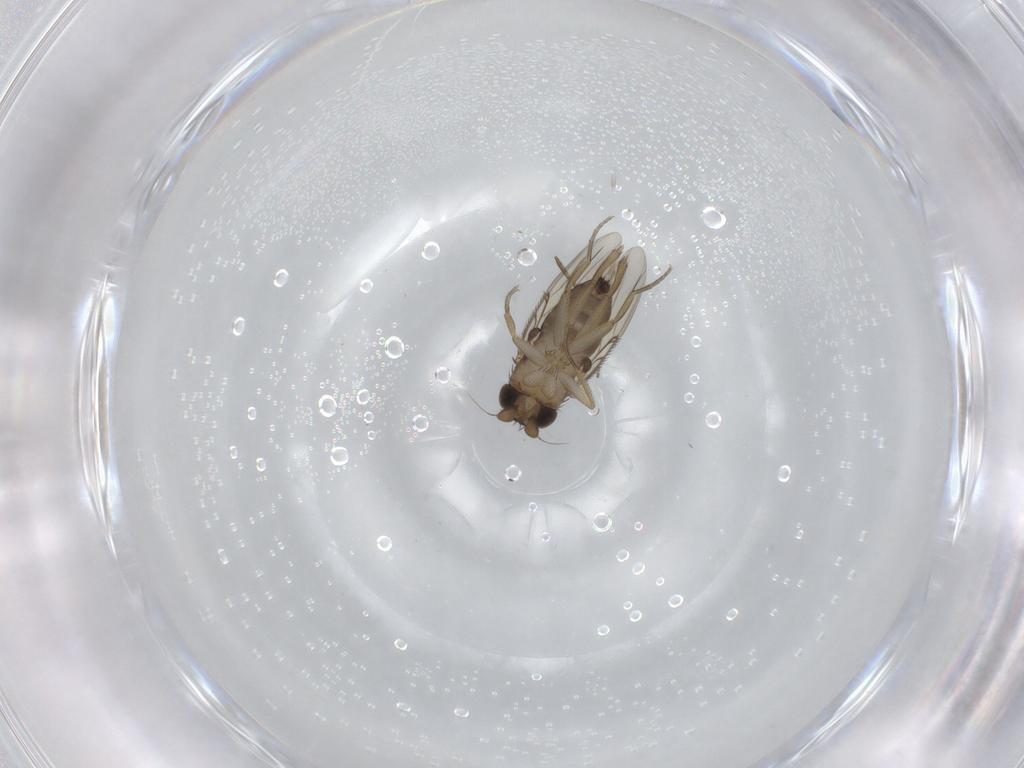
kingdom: Animalia
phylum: Arthropoda
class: Insecta
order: Diptera
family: Phoridae
